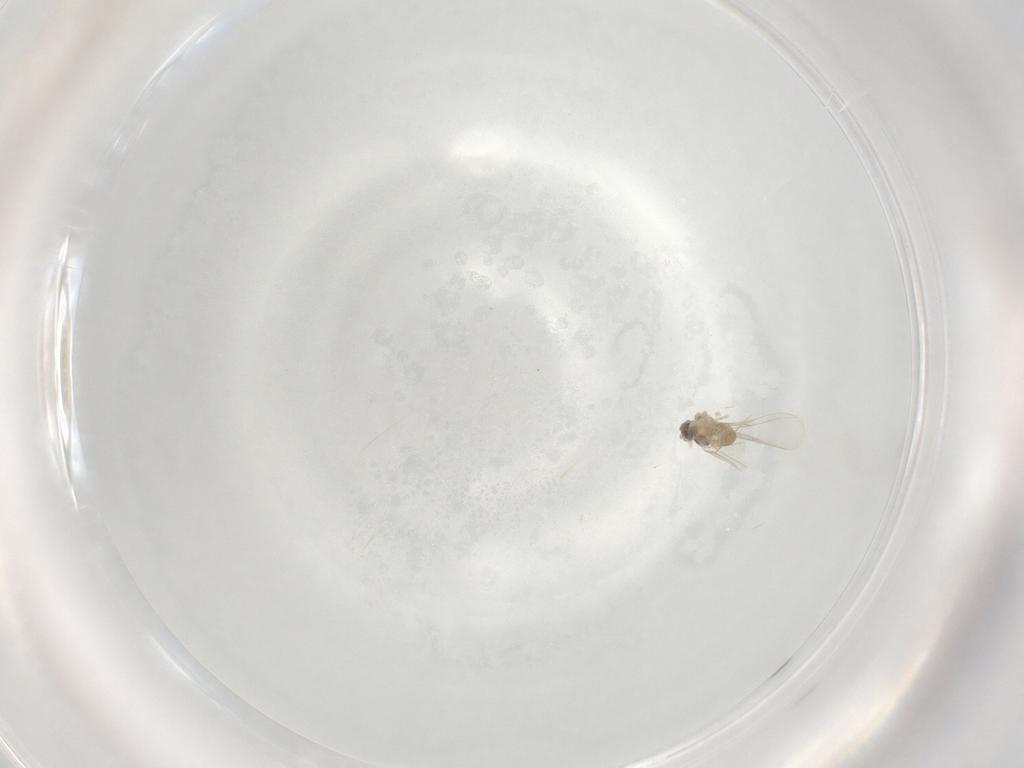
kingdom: Animalia
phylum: Arthropoda
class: Insecta
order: Diptera
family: Cecidomyiidae
